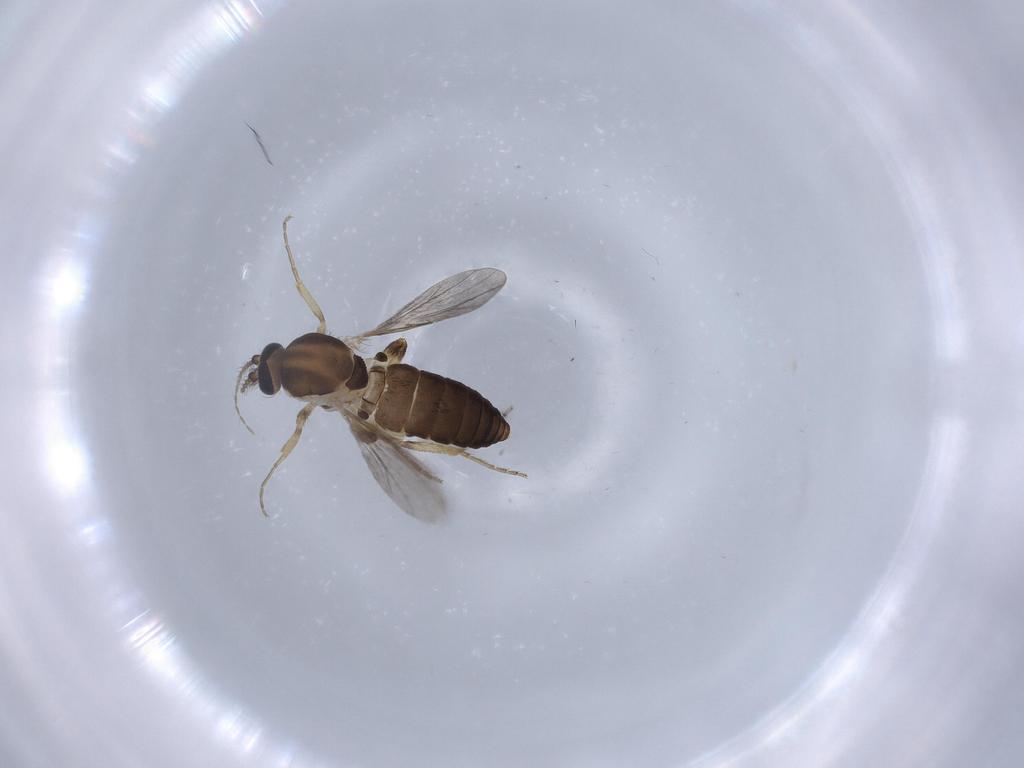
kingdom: Animalia
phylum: Arthropoda
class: Insecta
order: Diptera
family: Ceratopogonidae
